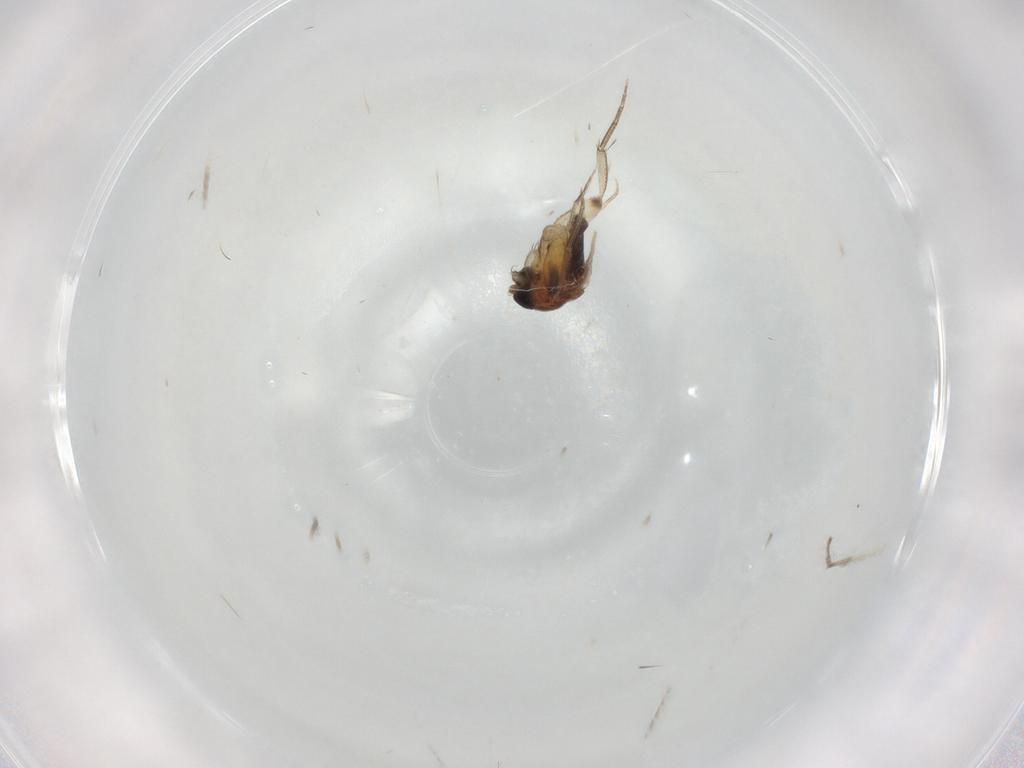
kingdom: Animalia
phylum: Arthropoda
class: Insecta
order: Diptera
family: Phoridae
